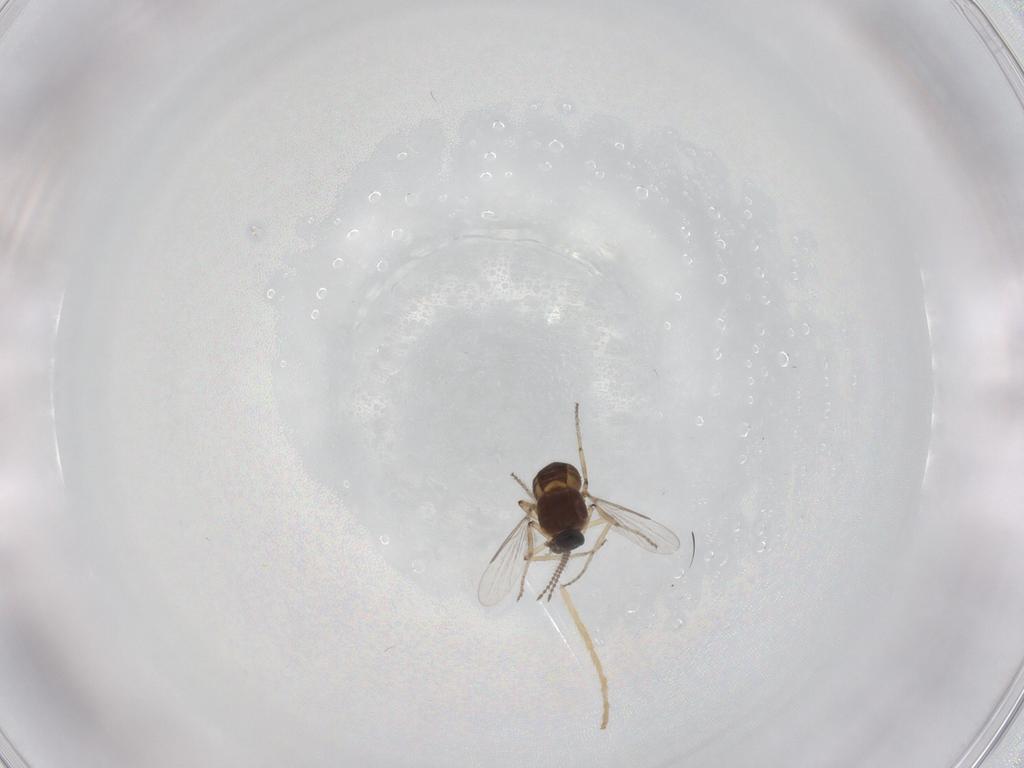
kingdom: Animalia
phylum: Arthropoda
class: Insecta
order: Diptera
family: Ceratopogonidae
